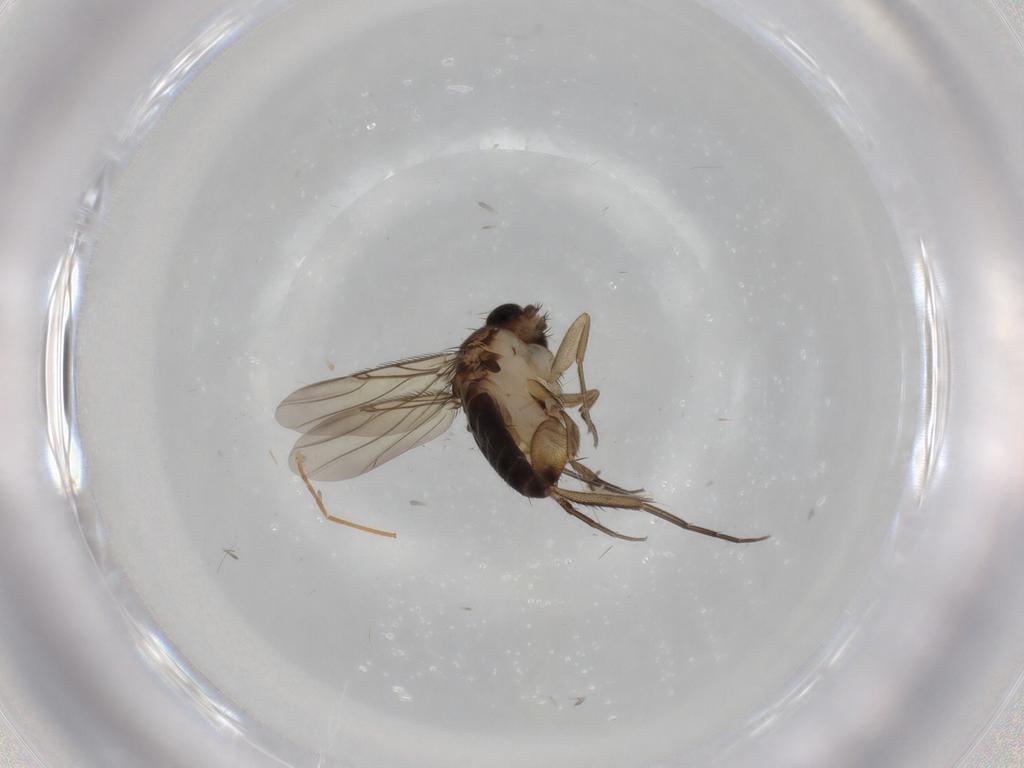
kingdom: Animalia
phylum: Arthropoda
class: Insecta
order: Diptera
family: Phoridae
